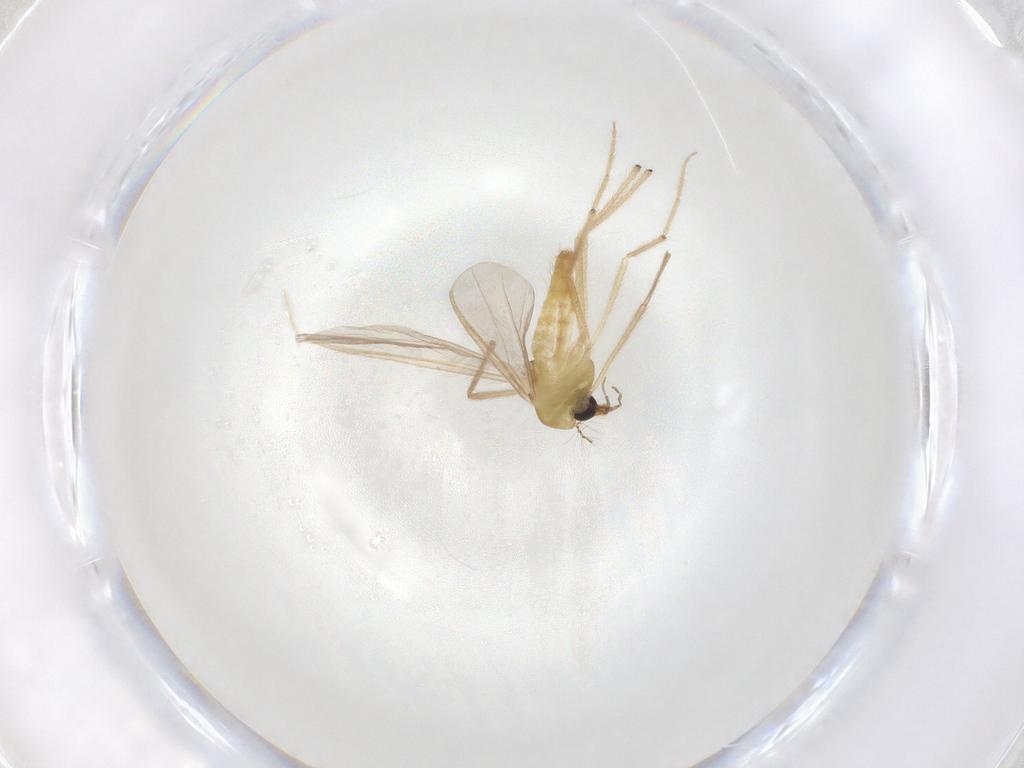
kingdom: Animalia
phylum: Arthropoda
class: Insecta
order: Diptera
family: Chironomidae
